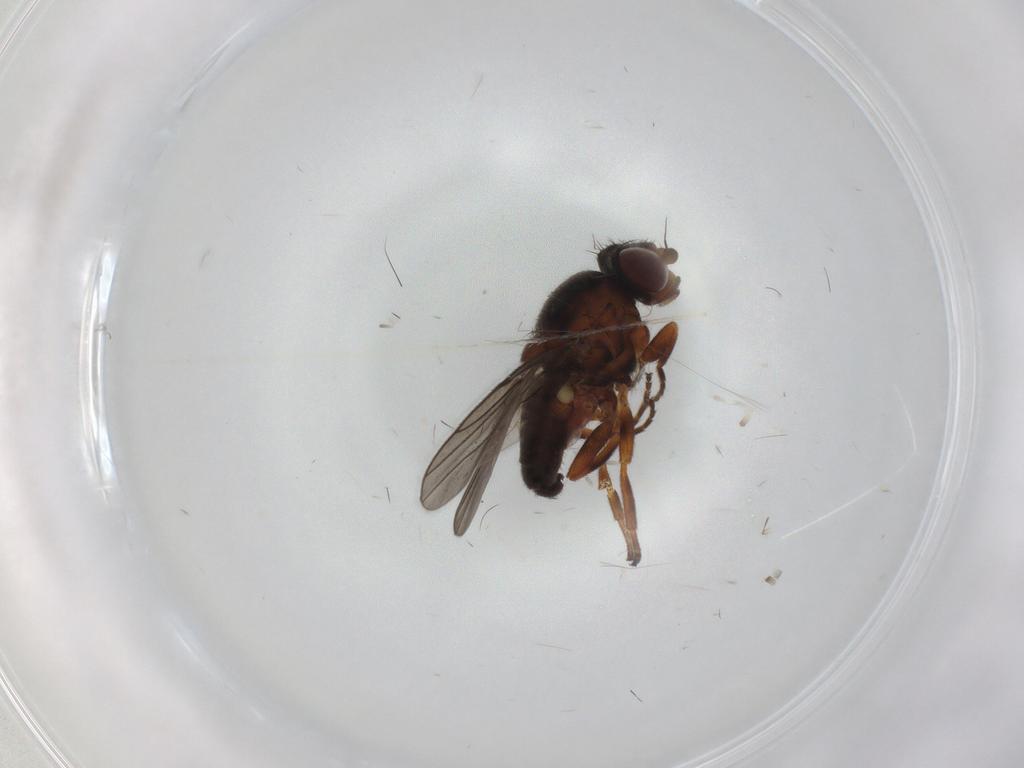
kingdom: Animalia
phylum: Arthropoda
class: Insecta
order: Diptera
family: Chloropidae
